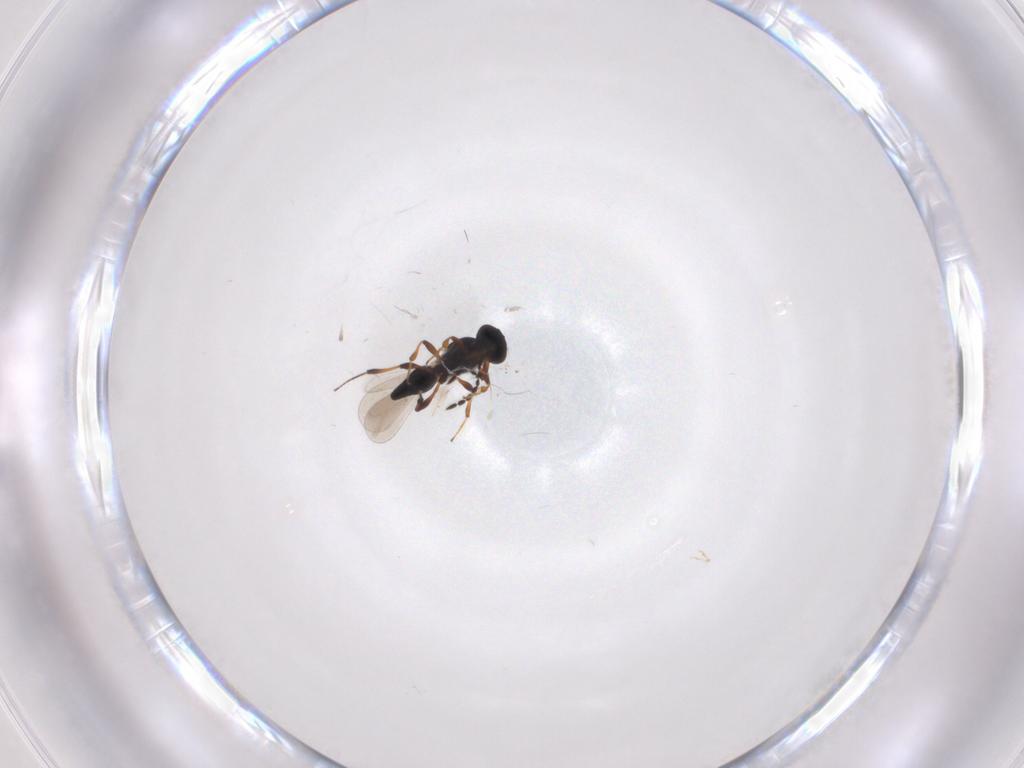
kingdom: Animalia
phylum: Arthropoda
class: Insecta
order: Hymenoptera
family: Platygastridae
